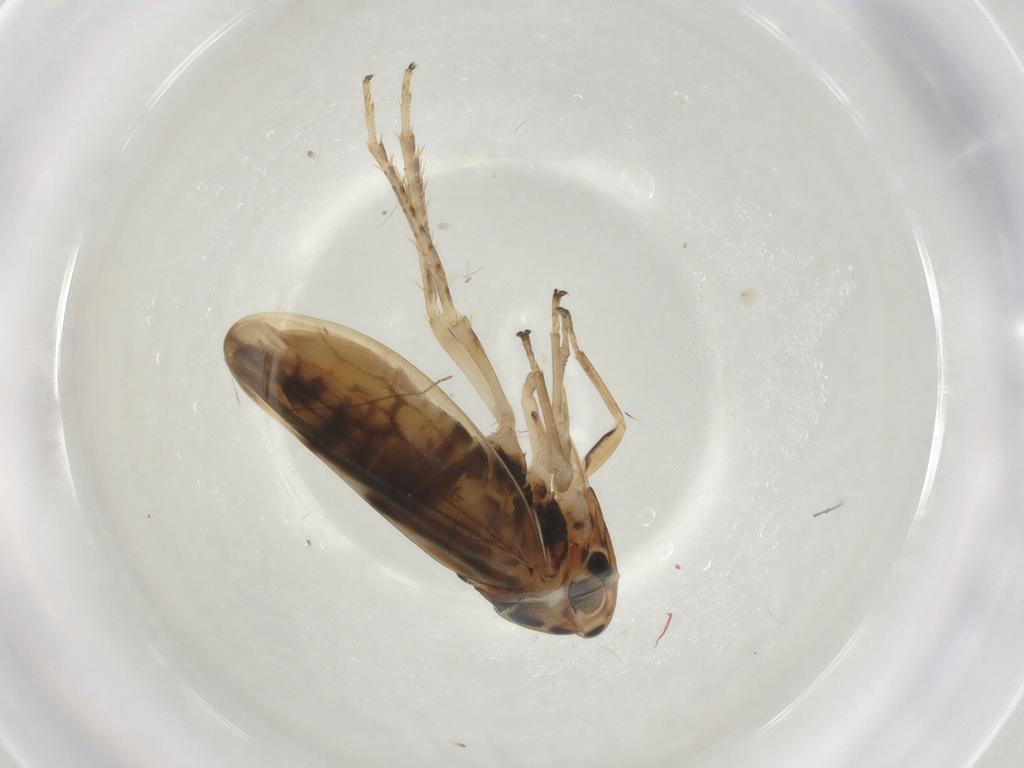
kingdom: Animalia
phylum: Arthropoda
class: Insecta
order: Hemiptera
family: Cicadellidae
